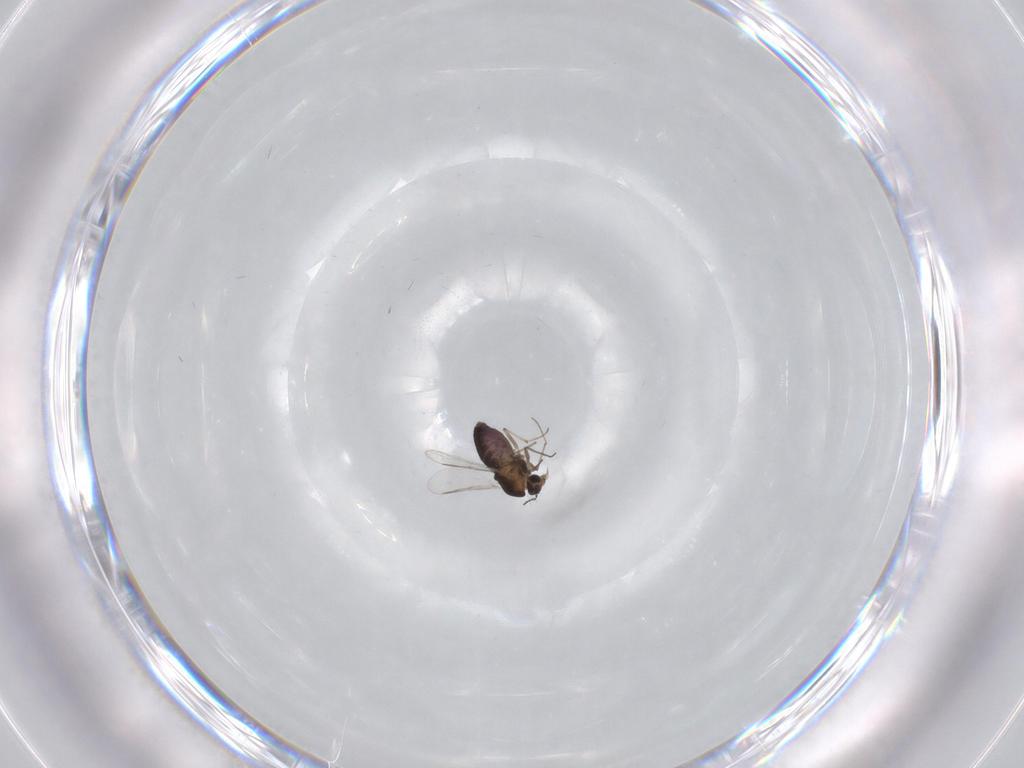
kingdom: Animalia
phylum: Arthropoda
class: Insecta
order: Diptera
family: Chironomidae
